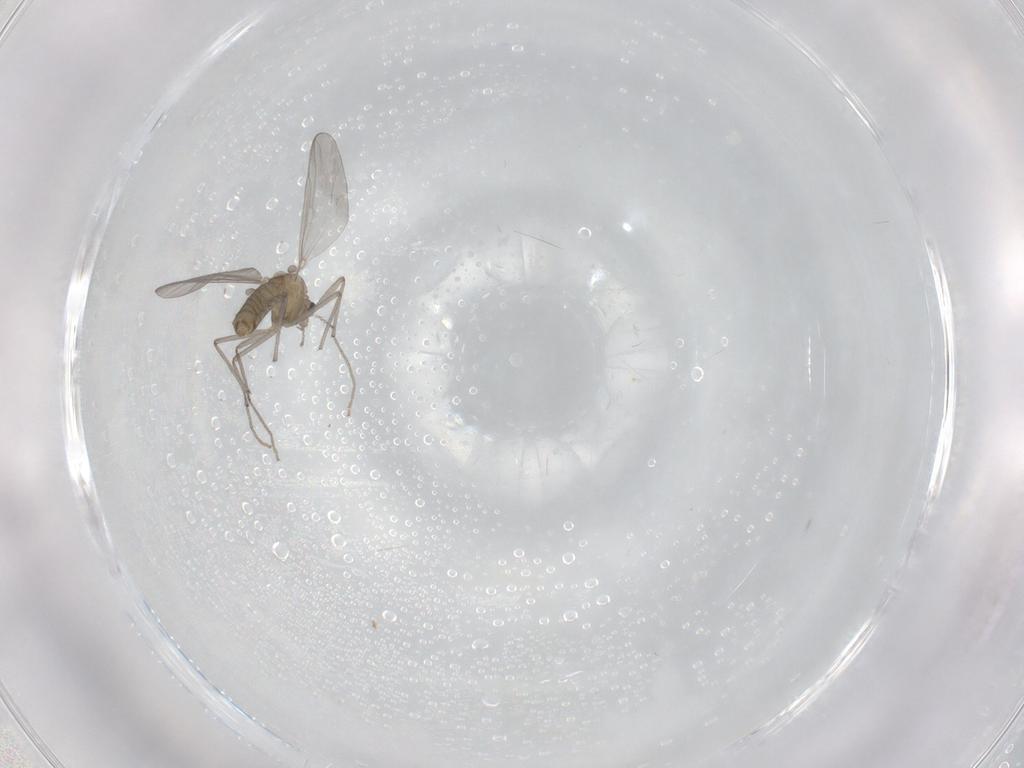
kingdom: Animalia
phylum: Arthropoda
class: Insecta
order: Diptera
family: Chironomidae
